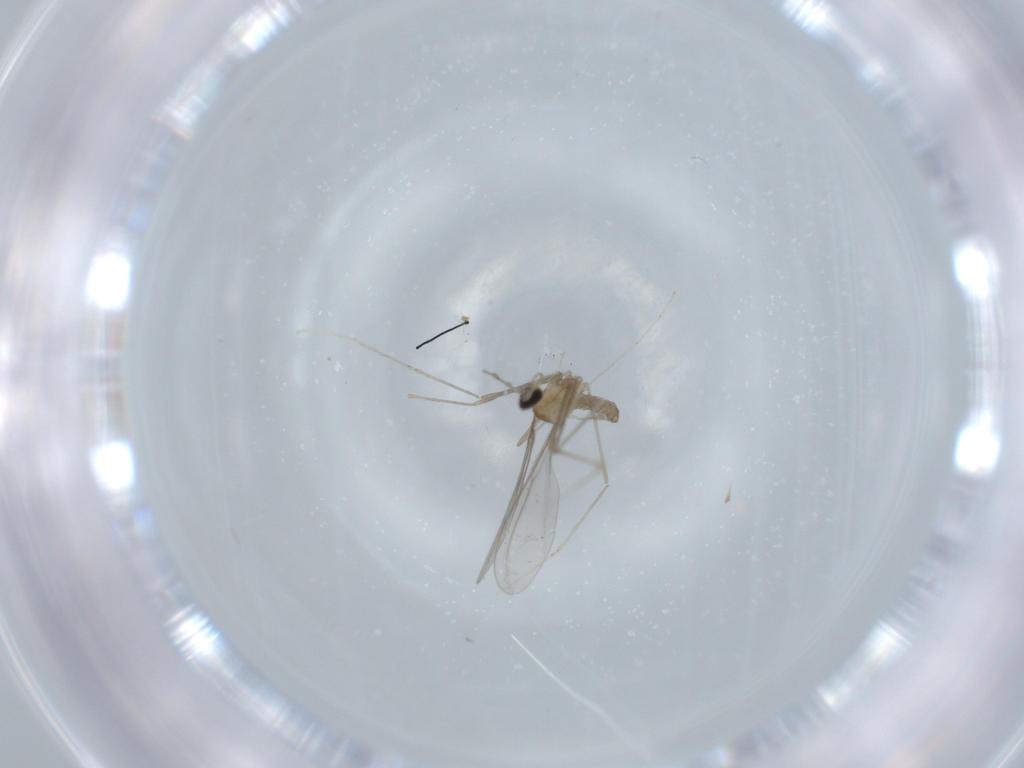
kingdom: Animalia
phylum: Arthropoda
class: Insecta
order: Diptera
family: Cecidomyiidae
